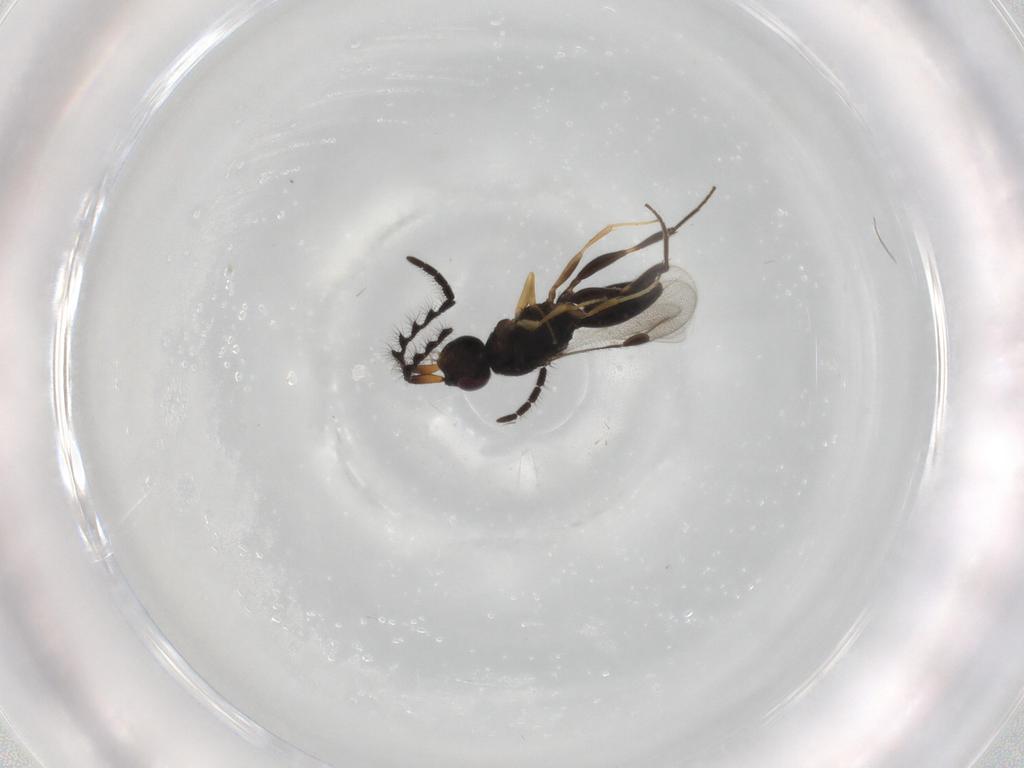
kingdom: Animalia
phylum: Arthropoda
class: Insecta
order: Hymenoptera
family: Megaspilidae
